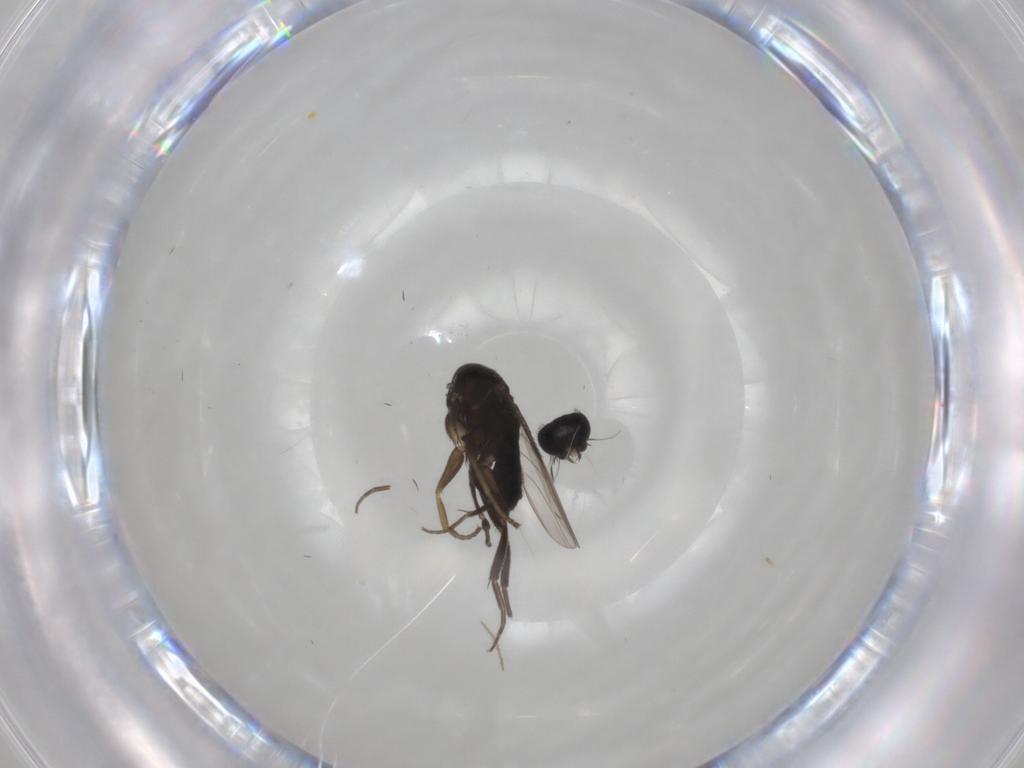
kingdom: Animalia
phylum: Arthropoda
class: Insecta
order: Diptera
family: Phoridae
